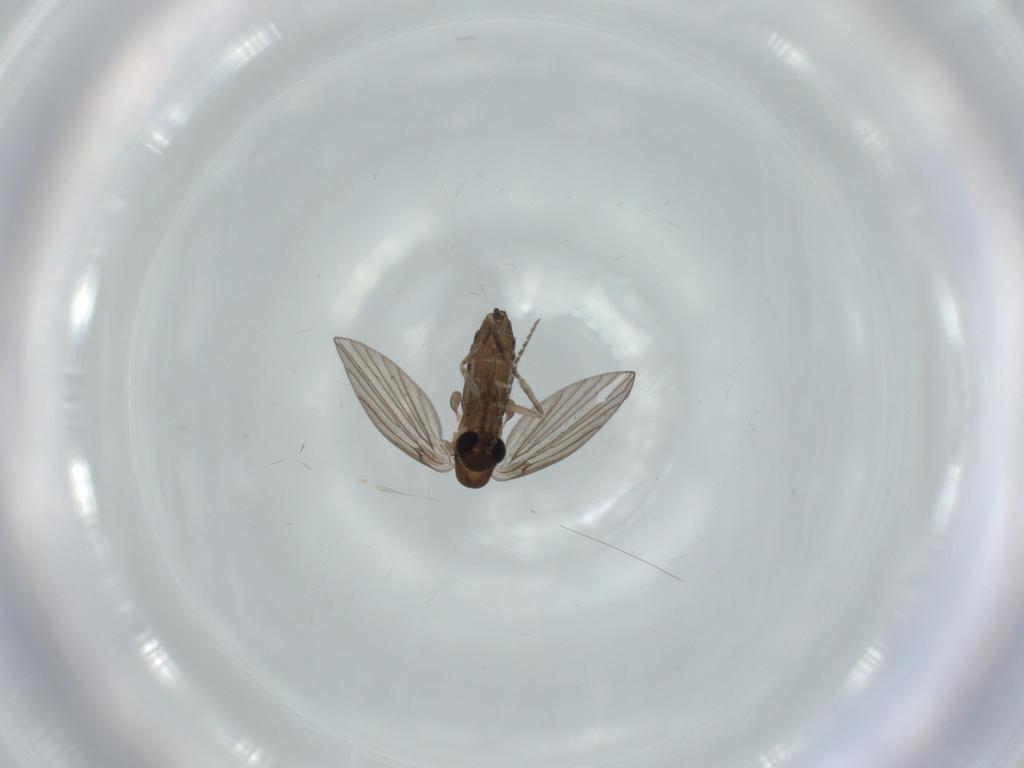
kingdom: Animalia
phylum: Arthropoda
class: Insecta
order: Diptera
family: Psychodidae
